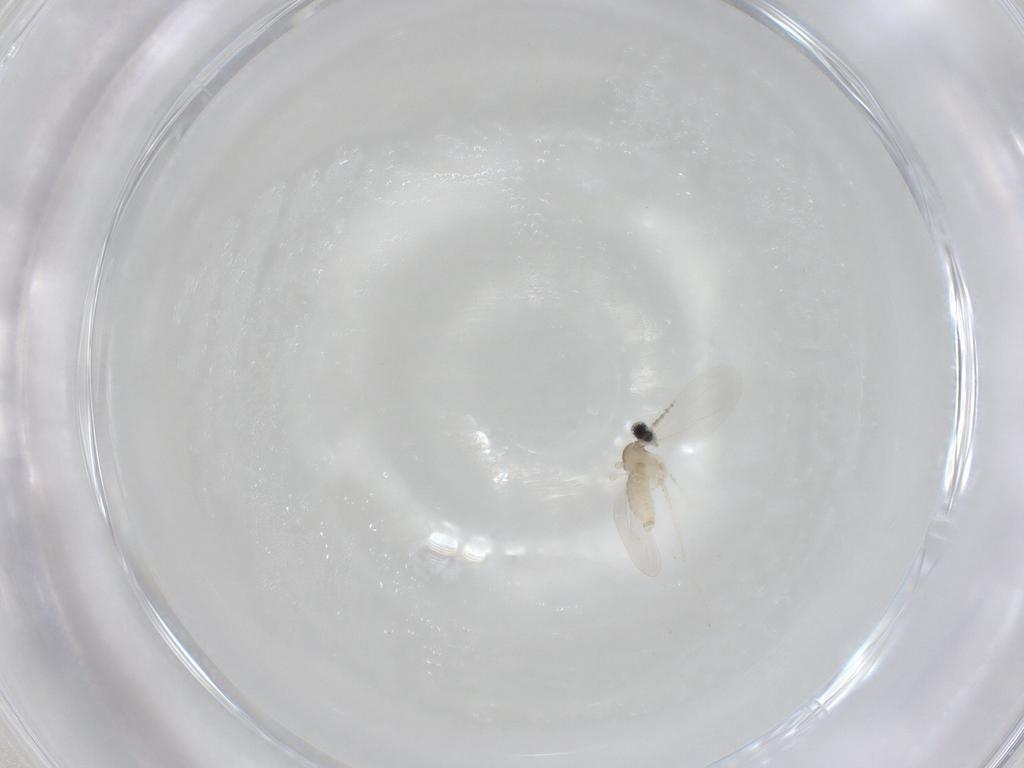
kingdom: Animalia
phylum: Arthropoda
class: Insecta
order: Diptera
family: Cecidomyiidae
